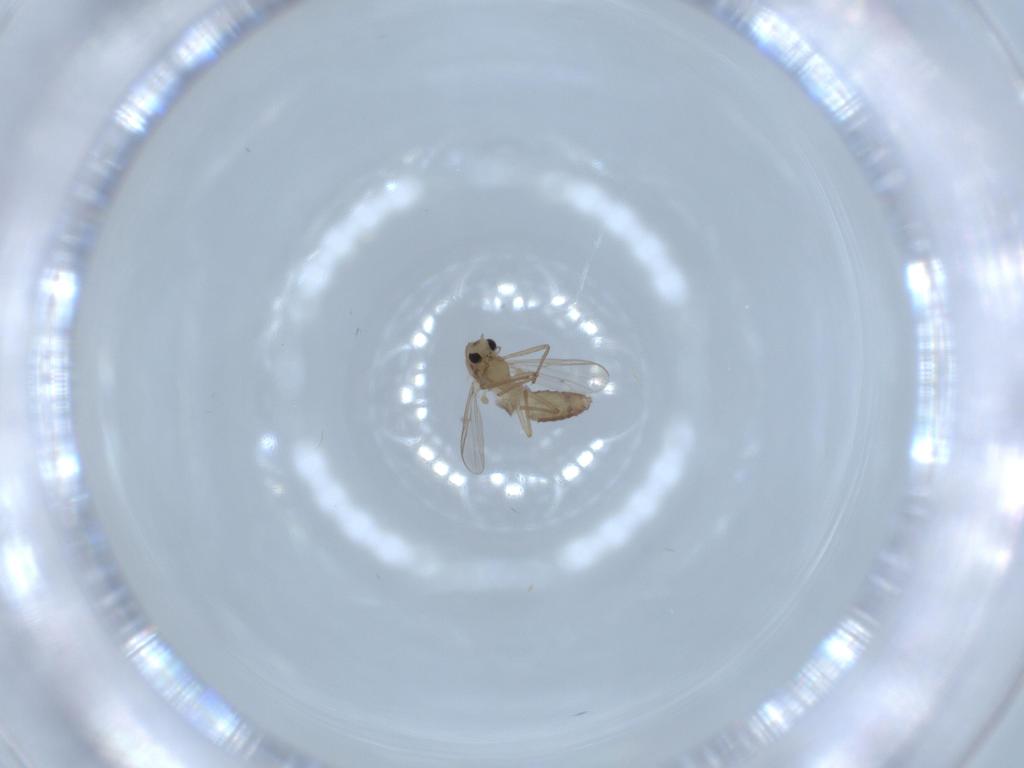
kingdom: Animalia
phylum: Arthropoda
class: Insecta
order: Diptera
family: Chironomidae
